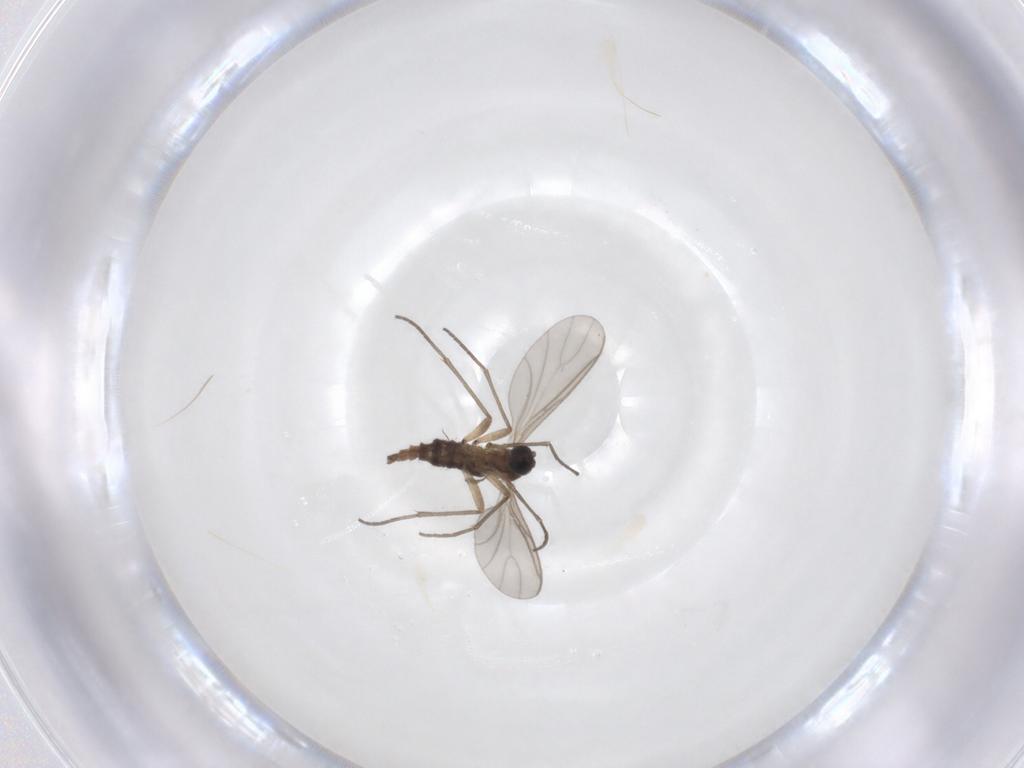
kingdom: Animalia
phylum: Arthropoda
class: Insecta
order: Diptera
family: Sciaridae
